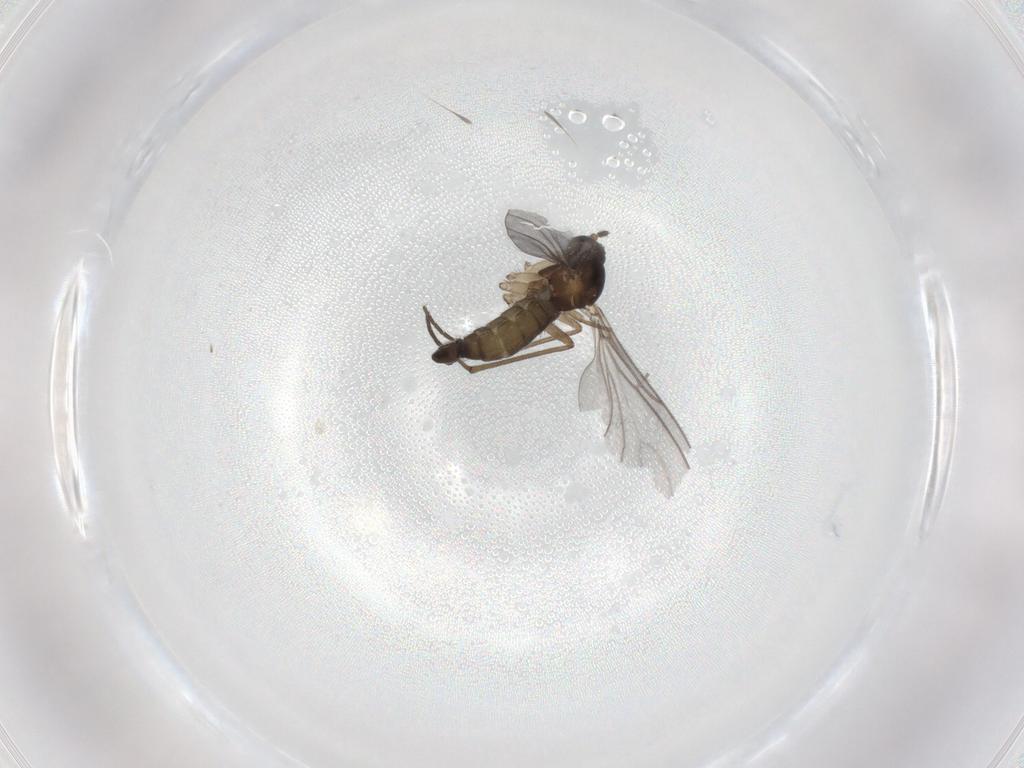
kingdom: Animalia
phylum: Arthropoda
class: Insecta
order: Diptera
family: Sciaridae
